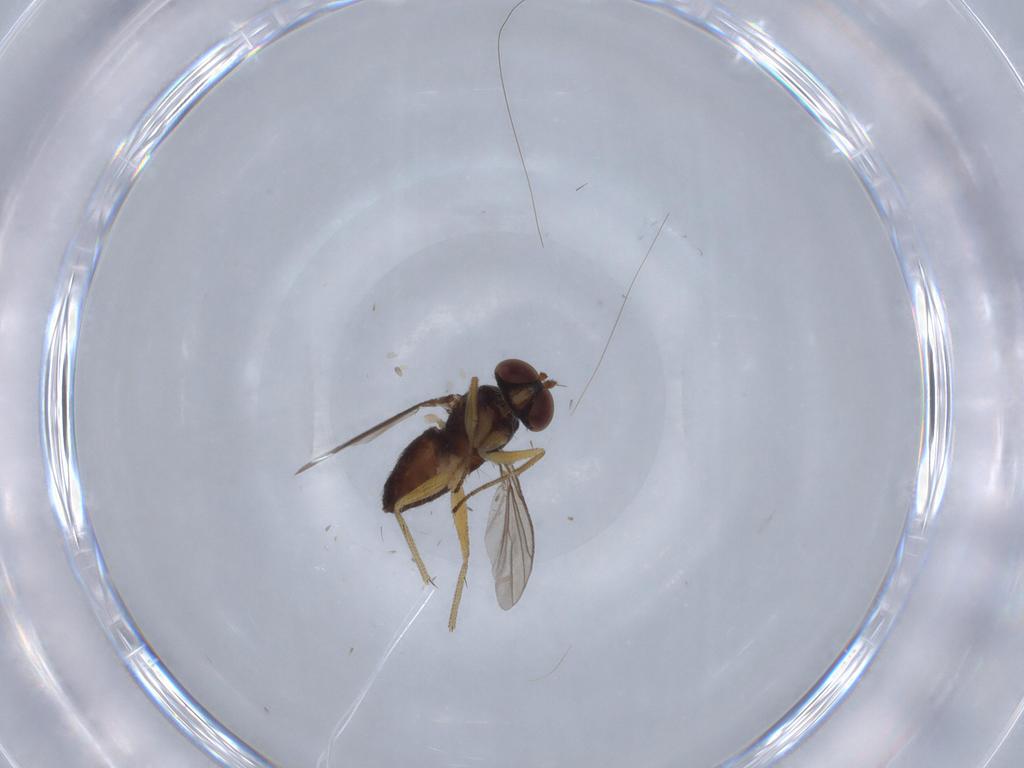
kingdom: Animalia
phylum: Arthropoda
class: Insecta
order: Diptera
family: Dolichopodidae
